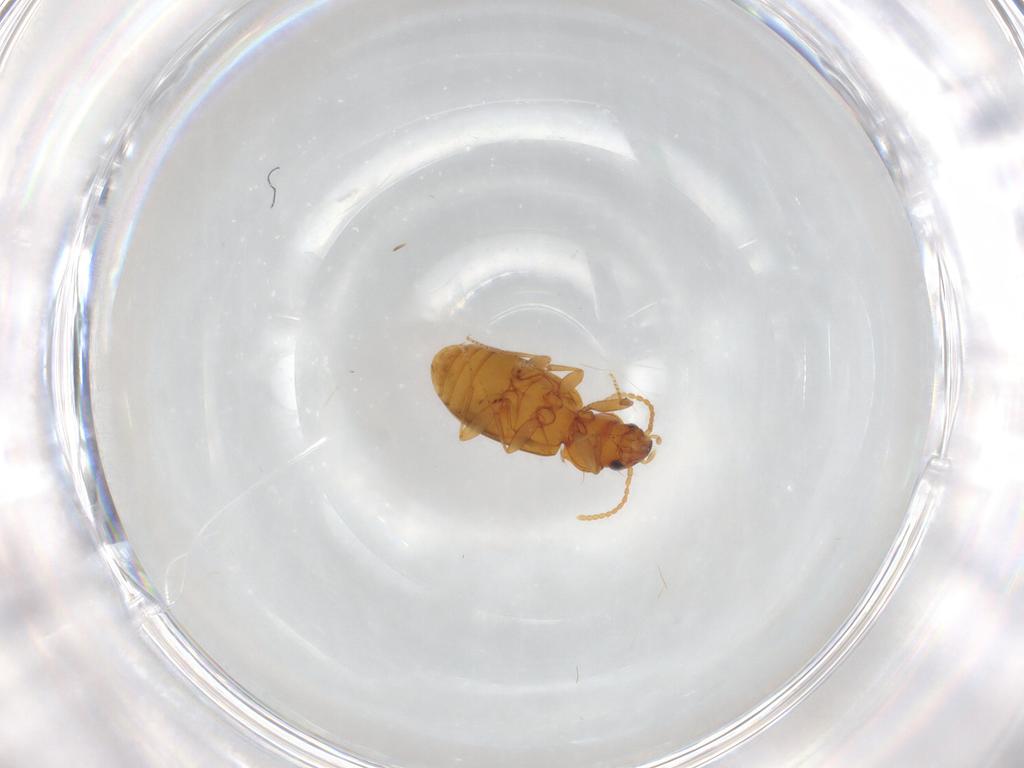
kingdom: Animalia
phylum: Arthropoda
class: Insecta
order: Coleoptera
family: Carabidae
